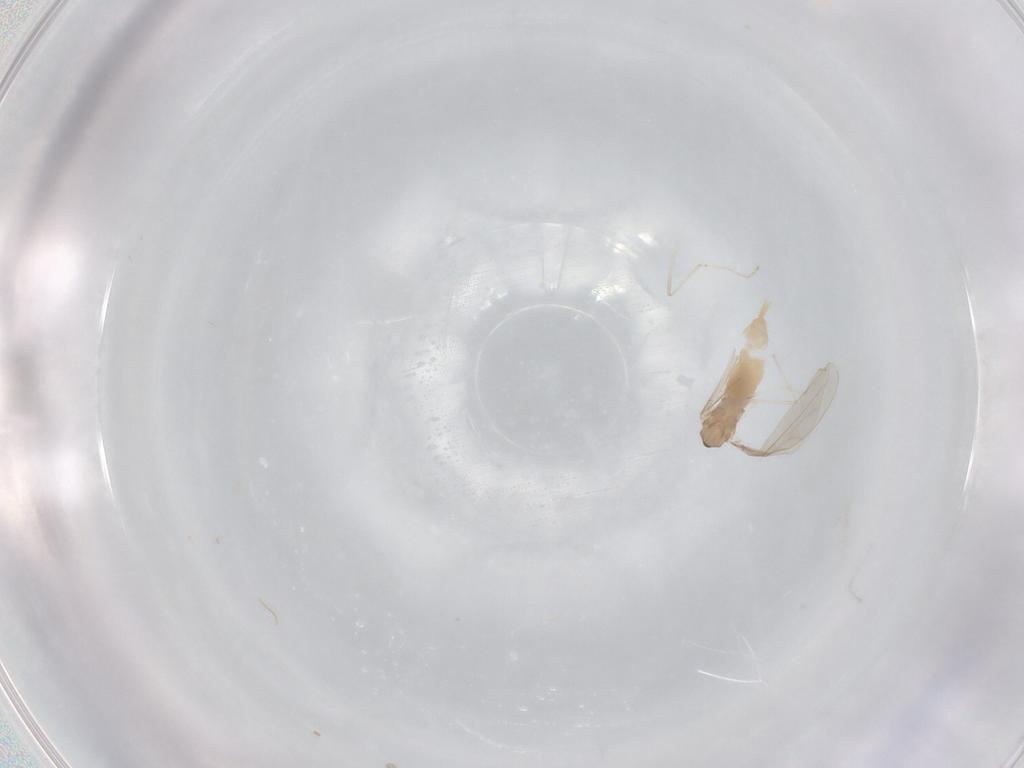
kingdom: Animalia
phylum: Arthropoda
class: Insecta
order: Diptera
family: Cecidomyiidae
